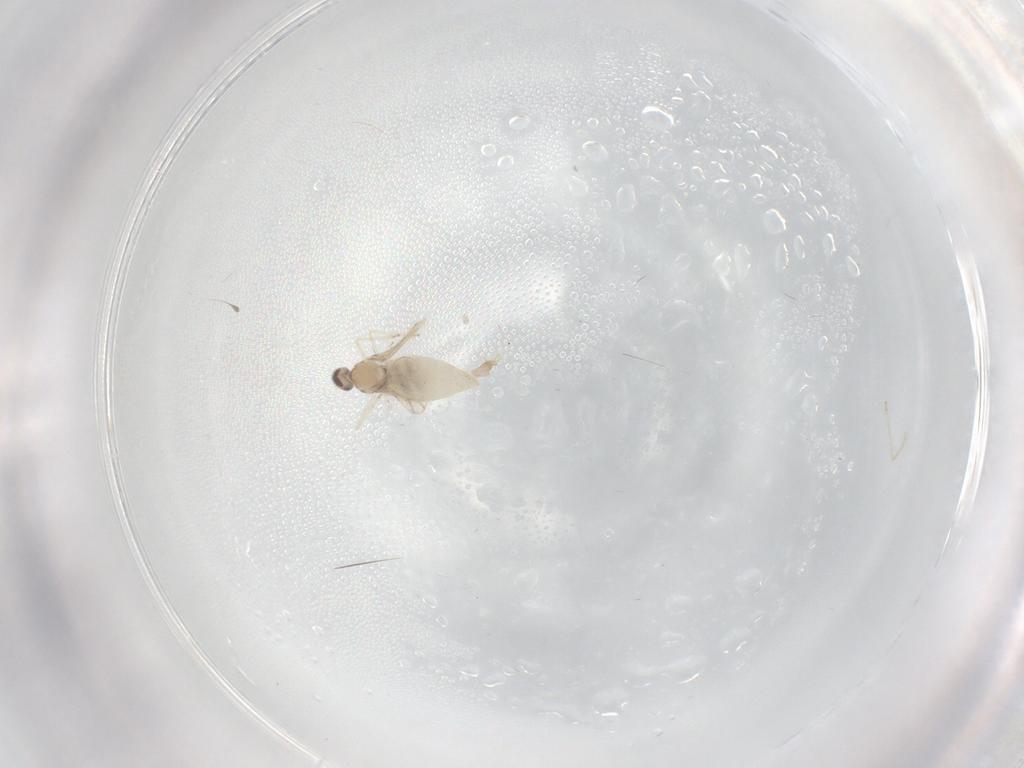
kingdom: Animalia
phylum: Arthropoda
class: Insecta
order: Diptera
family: Cecidomyiidae
